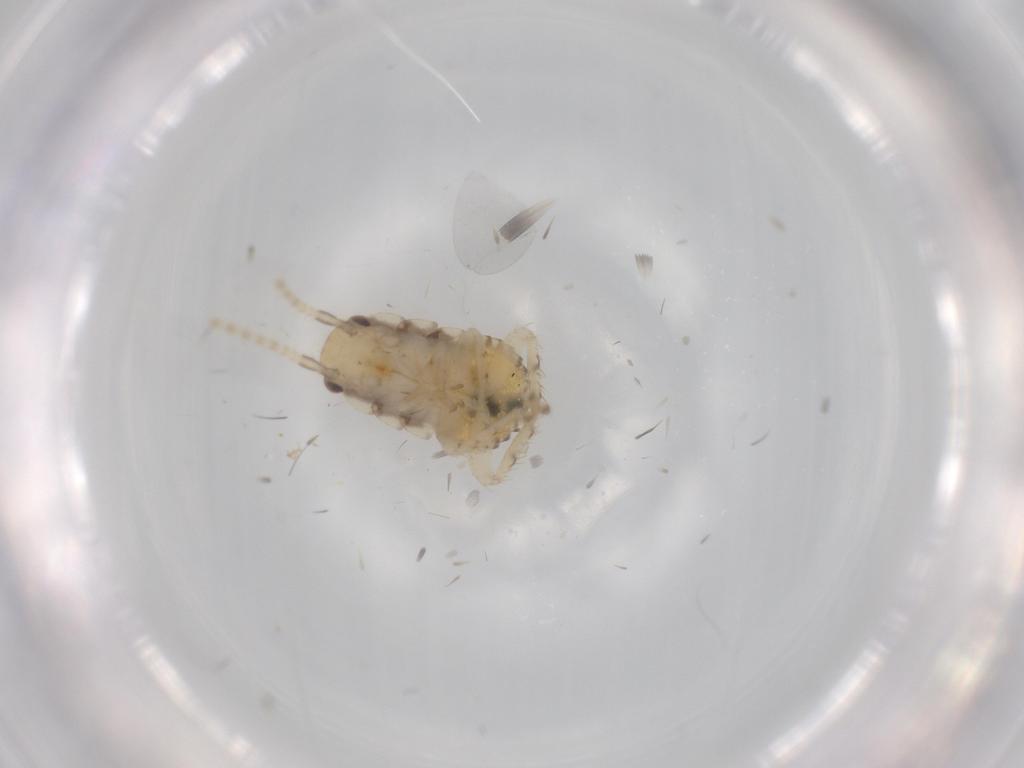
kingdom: Animalia
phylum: Arthropoda
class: Insecta
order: Blattodea
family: Ectobiidae
